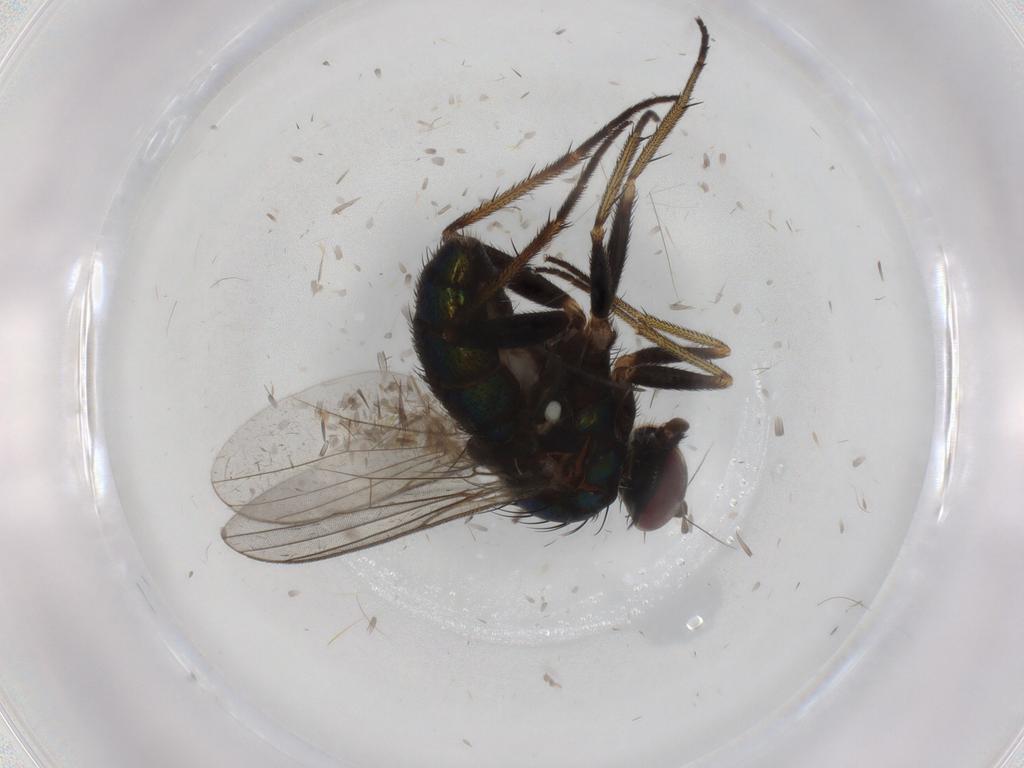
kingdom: Animalia
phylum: Arthropoda
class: Insecta
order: Diptera
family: Dolichopodidae
